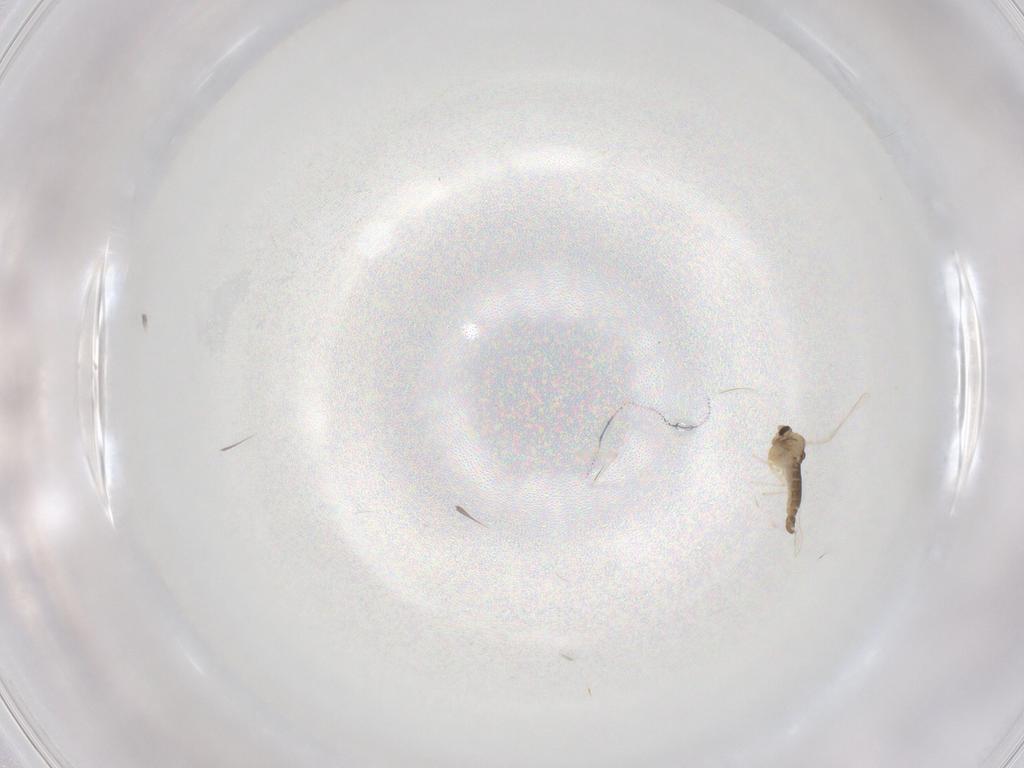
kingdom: Animalia
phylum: Arthropoda
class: Insecta
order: Diptera
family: Chironomidae
